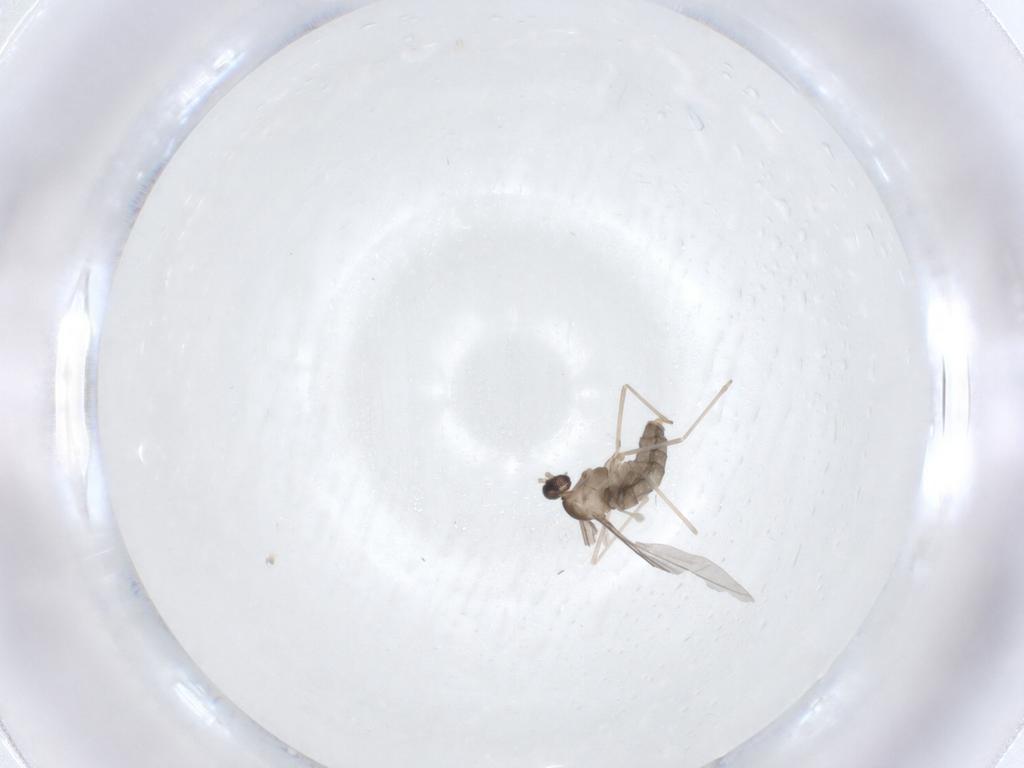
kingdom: Animalia
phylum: Arthropoda
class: Insecta
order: Diptera
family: Cecidomyiidae
